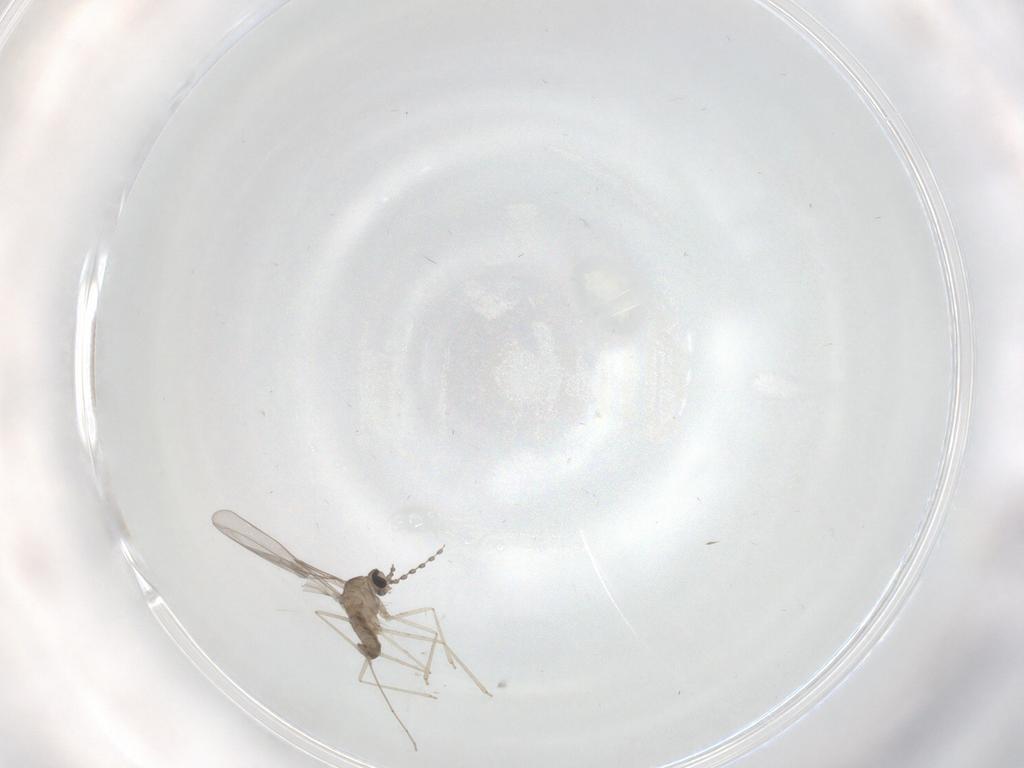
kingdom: Animalia
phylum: Arthropoda
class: Insecta
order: Diptera
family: Cecidomyiidae
